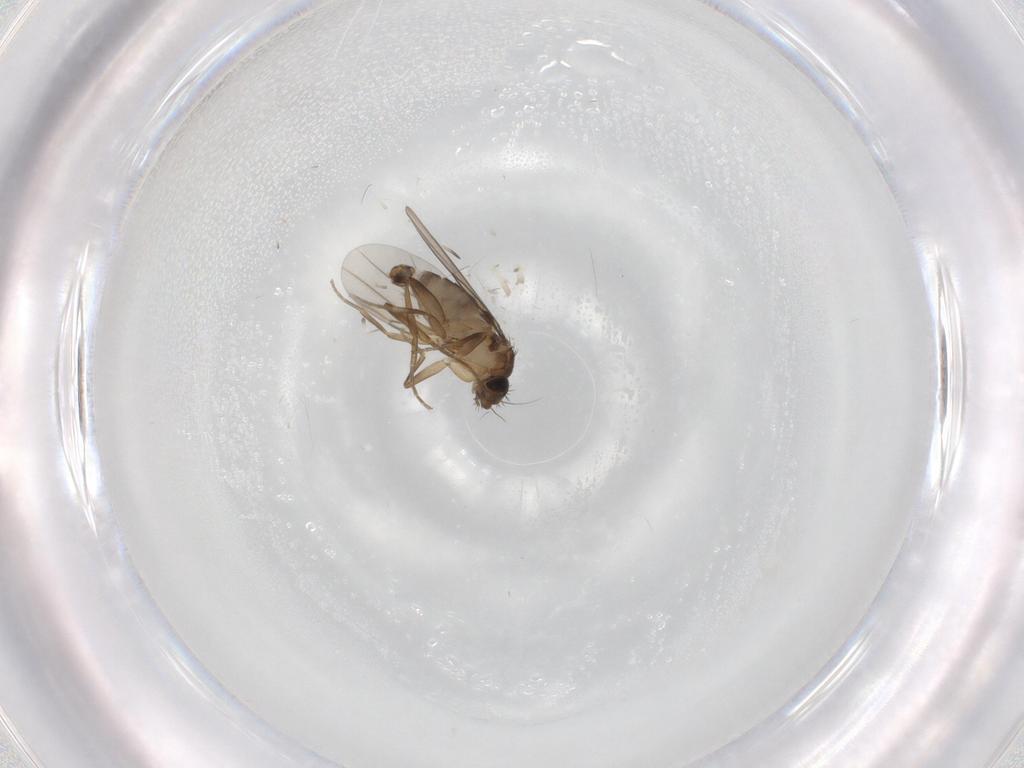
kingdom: Animalia
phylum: Arthropoda
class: Insecta
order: Diptera
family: Phoridae
